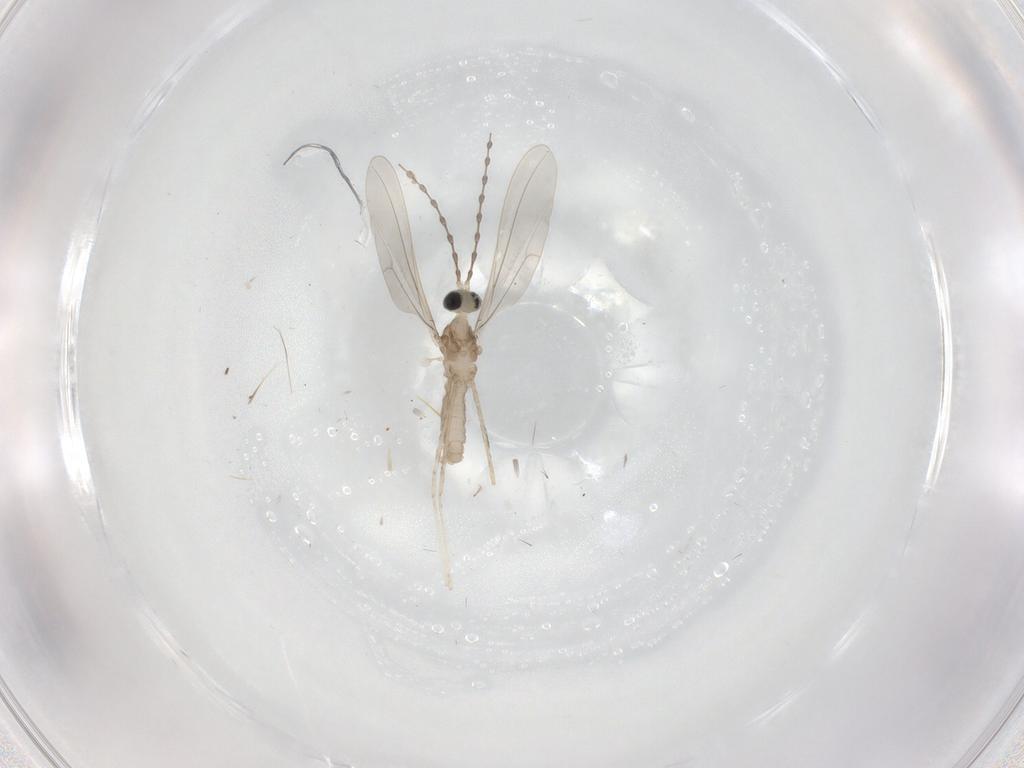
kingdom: Animalia
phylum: Arthropoda
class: Insecta
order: Diptera
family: Cecidomyiidae
